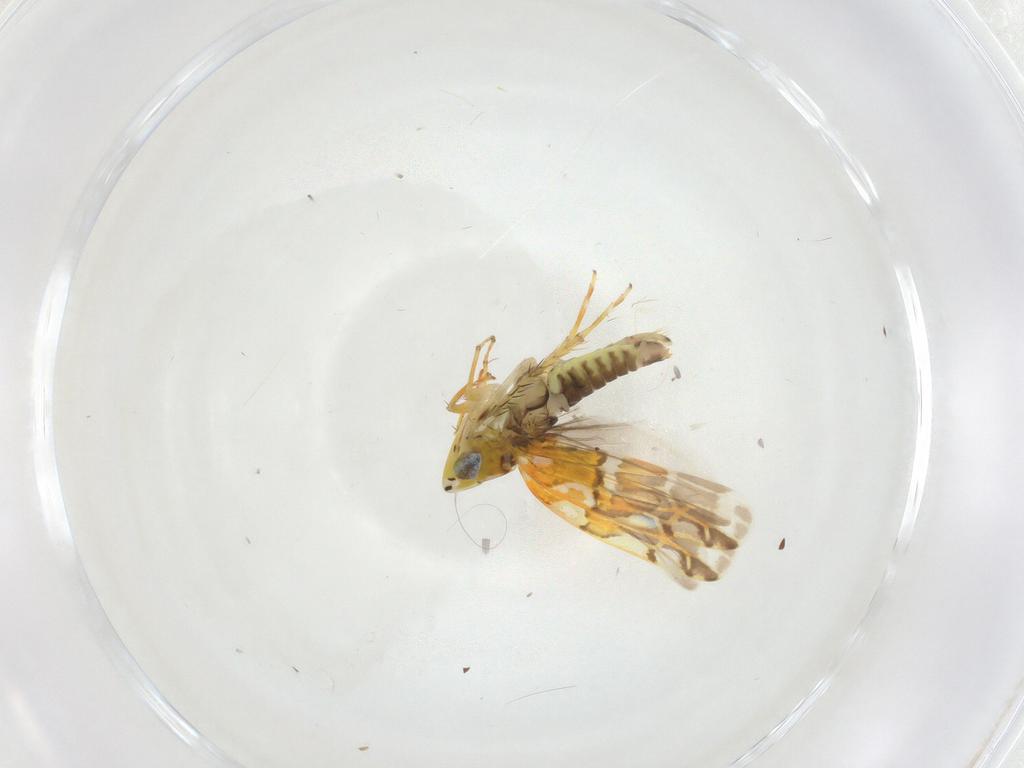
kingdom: Animalia
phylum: Arthropoda
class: Insecta
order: Hemiptera
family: Cicadellidae
